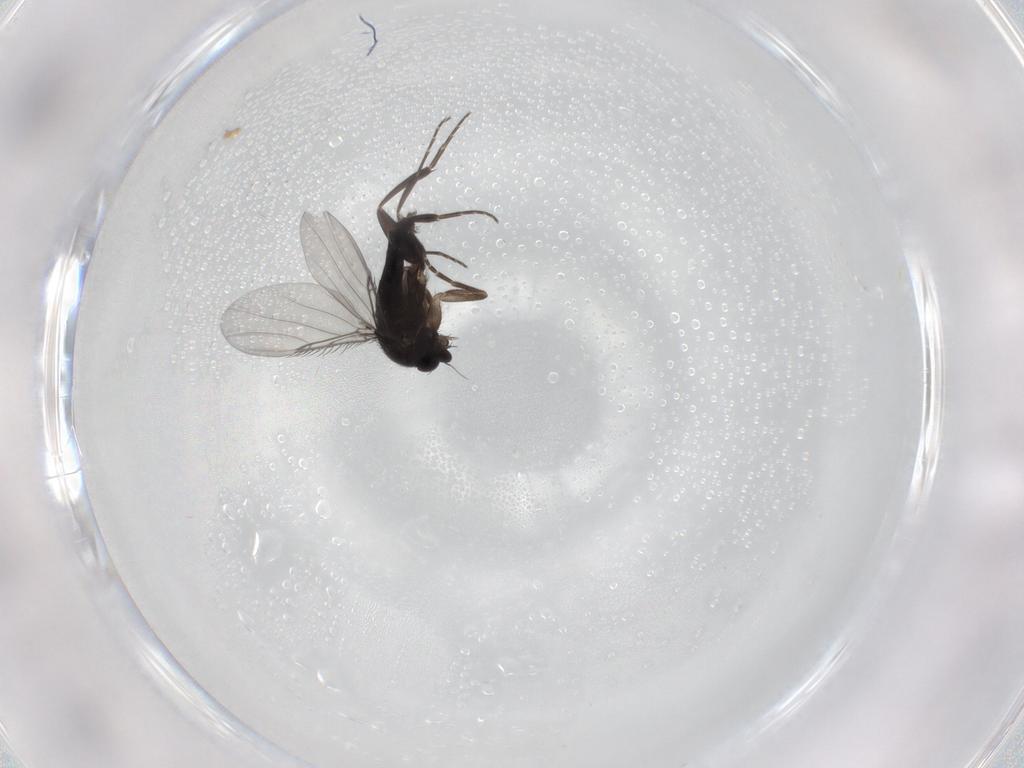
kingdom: Animalia
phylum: Arthropoda
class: Insecta
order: Diptera
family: Phoridae
